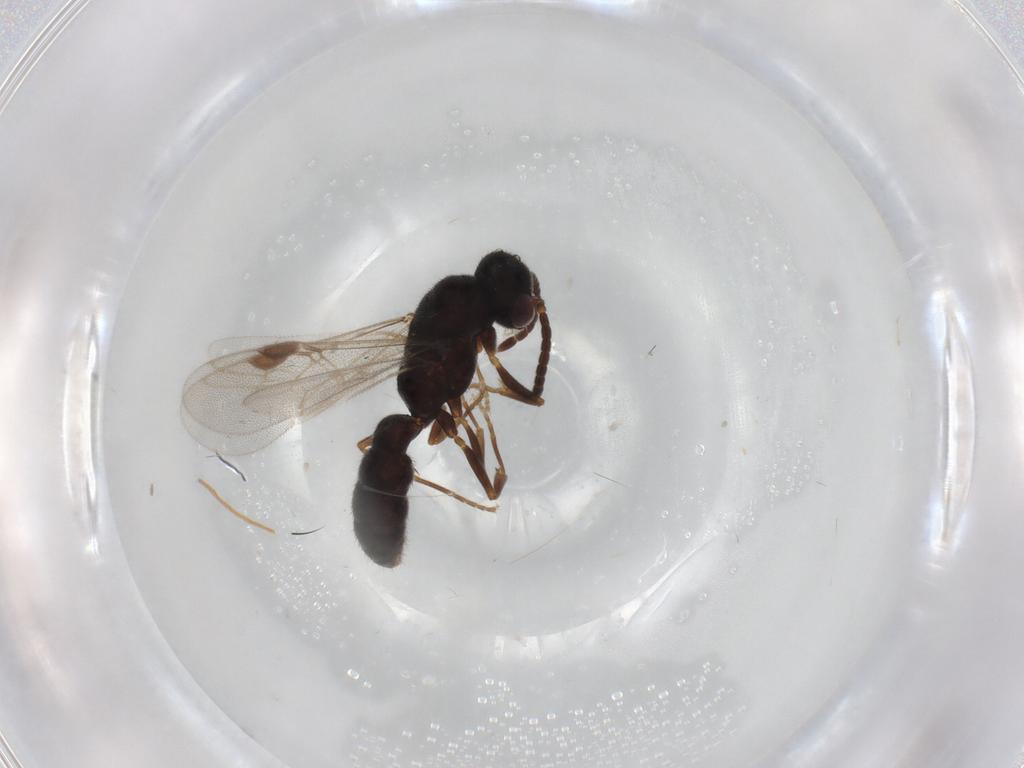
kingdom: Animalia
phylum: Arthropoda
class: Insecta
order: Hymenoptera
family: Formicidae
